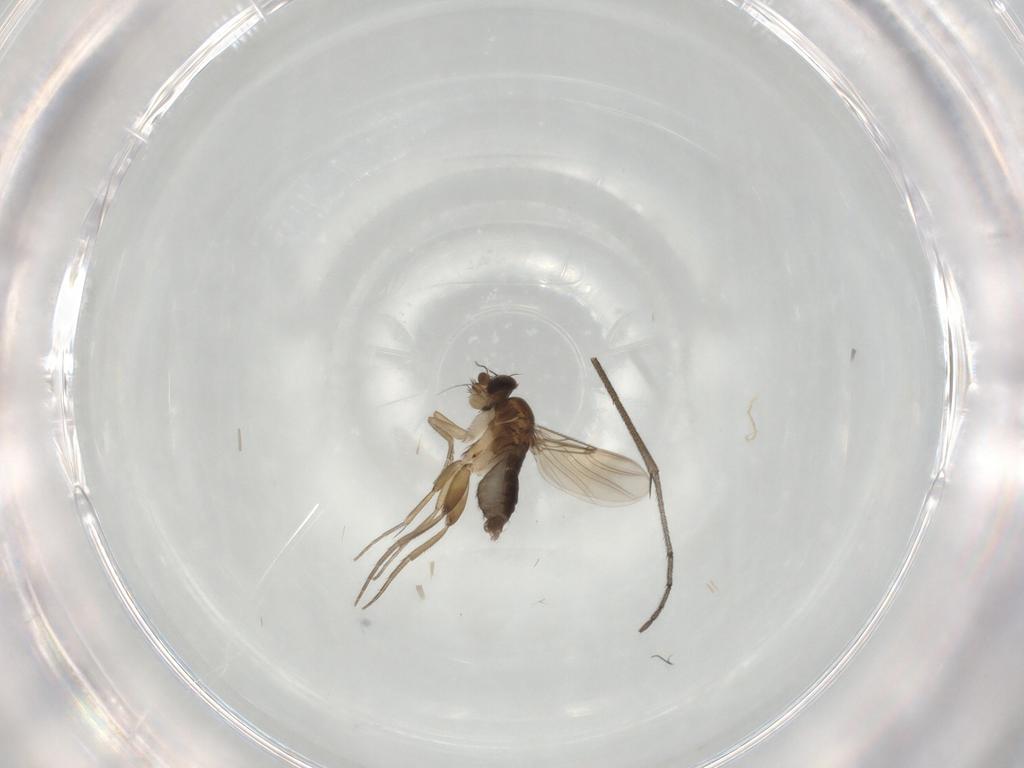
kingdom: Animalia
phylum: Arthropoda
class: Insecta
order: Diptera
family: Phoridae
